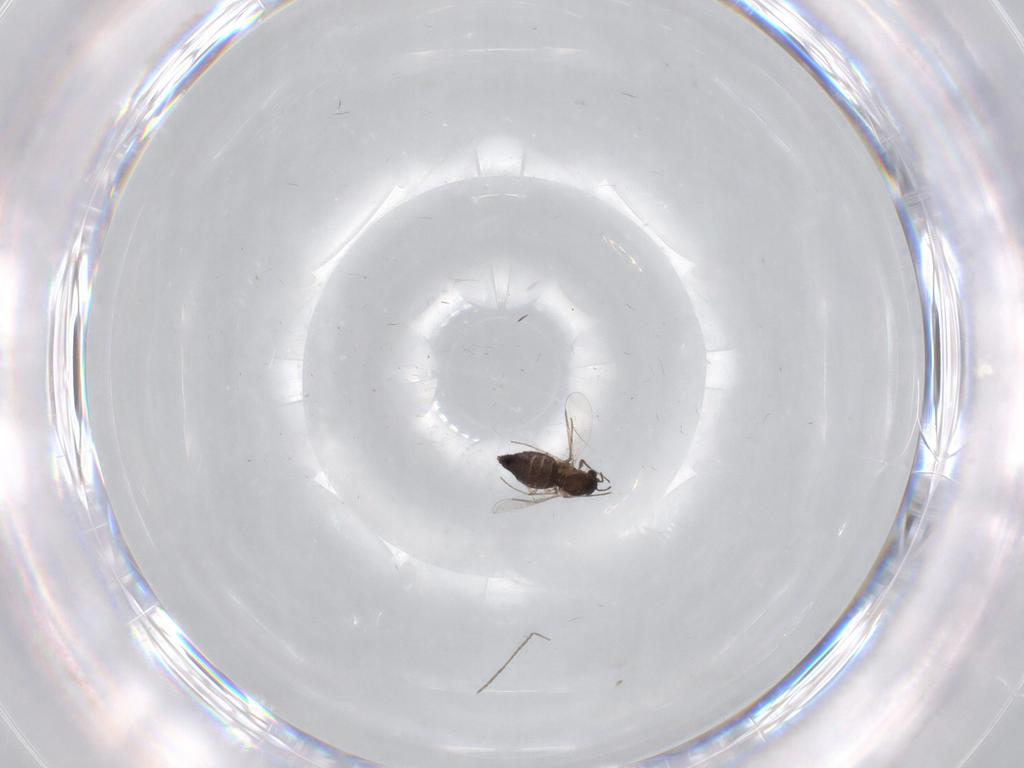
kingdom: Animalia
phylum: Arthropoda
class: Insecta
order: Diptera
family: Chironomidae
